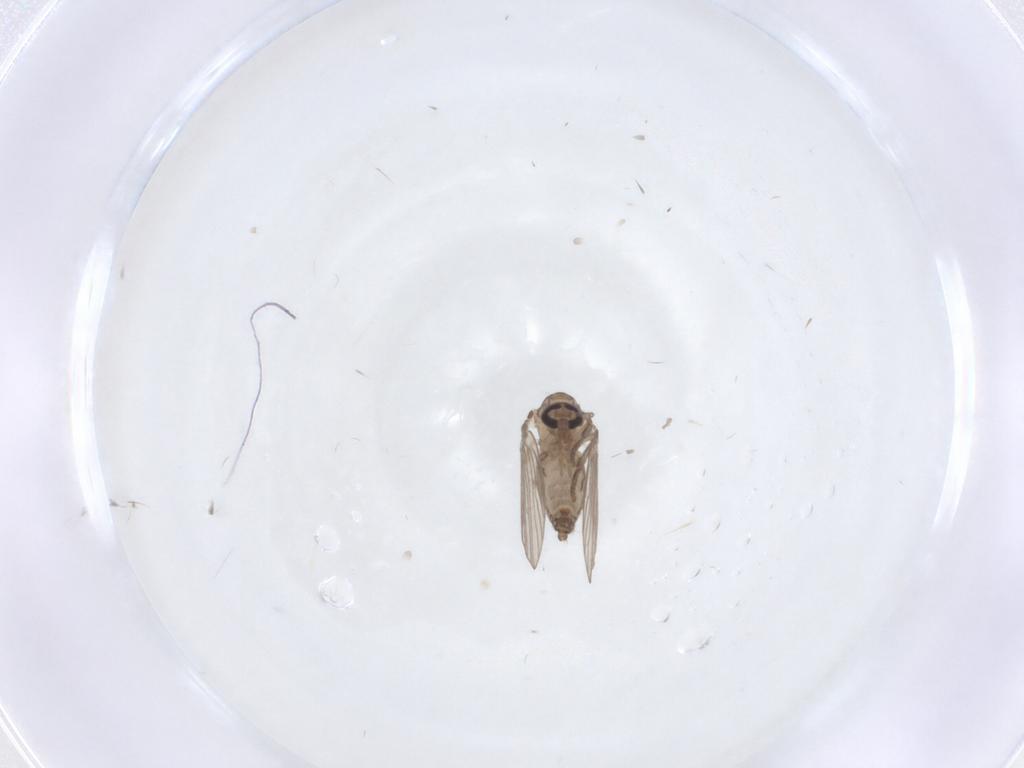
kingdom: Animalia
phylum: Arthropoda
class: Insecta
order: Diptera
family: Psychodidae
